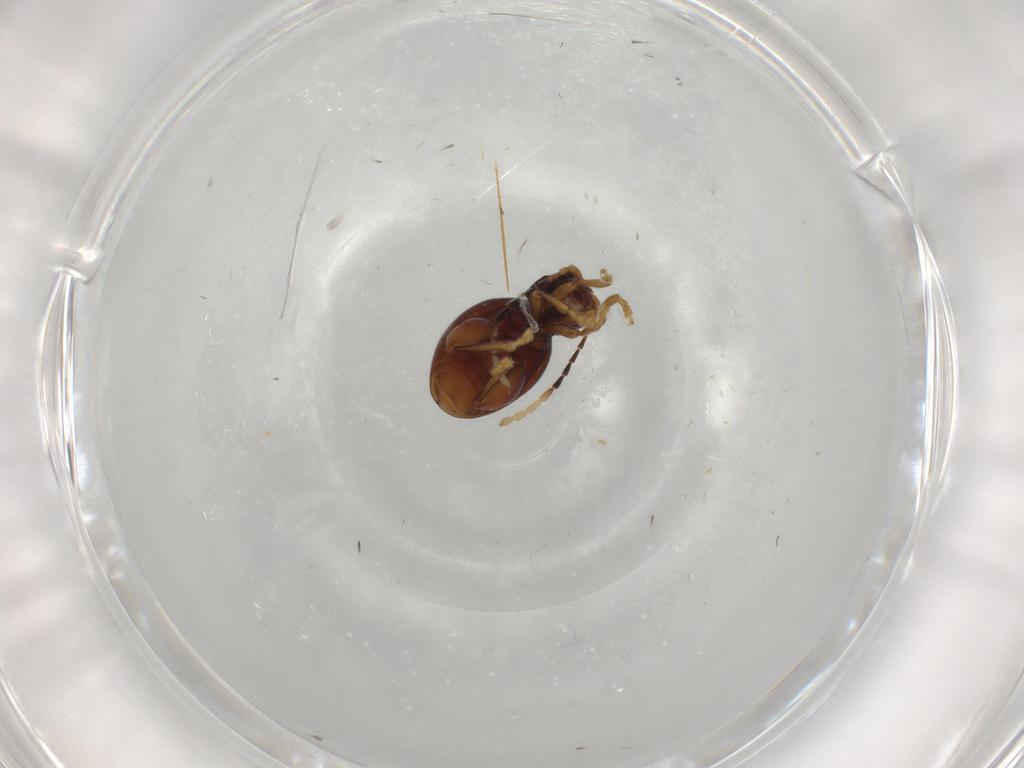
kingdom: Animalia
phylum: Arthropoda
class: Insecta
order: Coleoptera
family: Chrysomelidae
